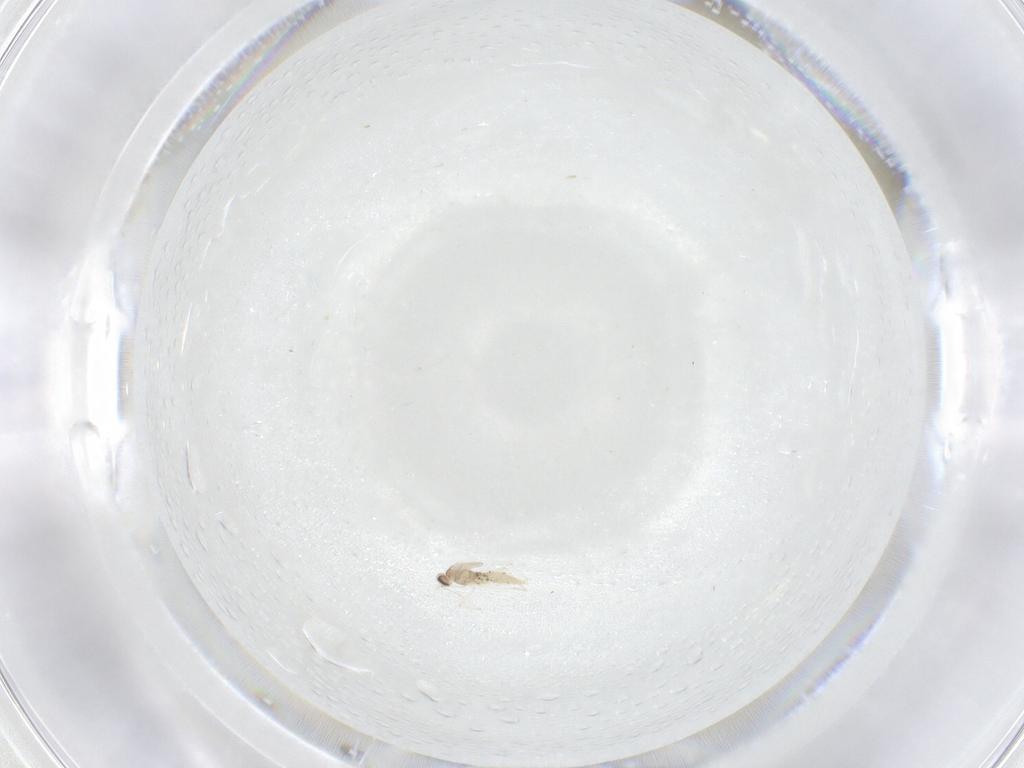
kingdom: Animalia
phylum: Arthropoda
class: Insecta
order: Diptera
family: Cecidomyiidae
